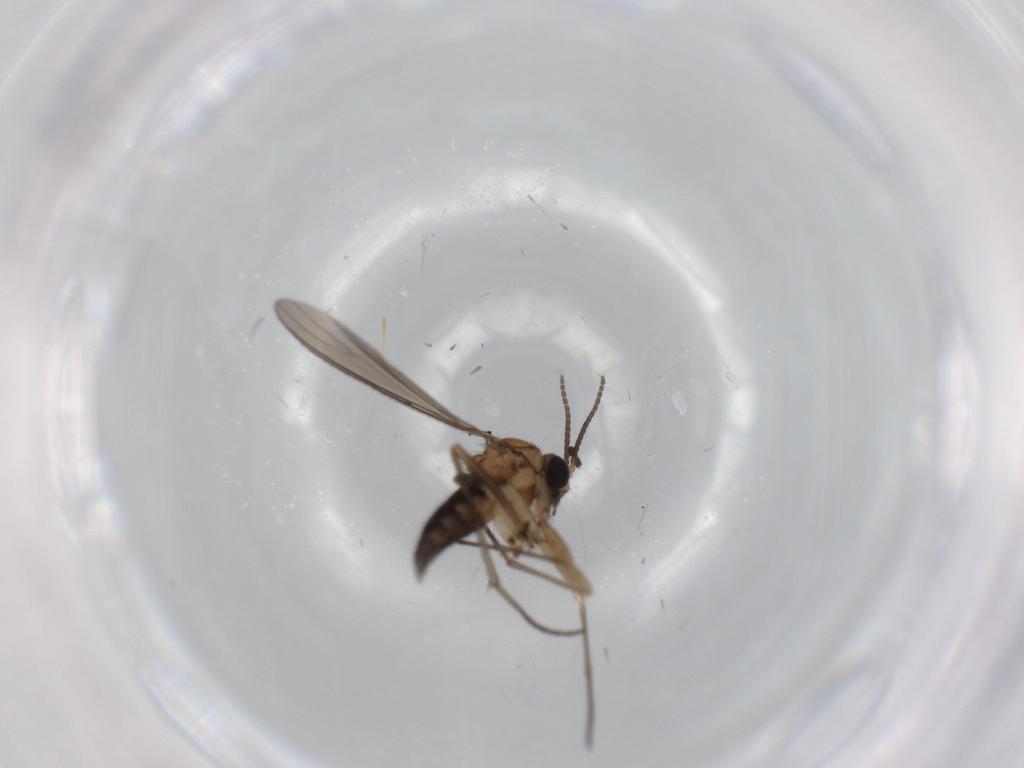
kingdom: Animalia
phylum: Arthropoda
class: Insecta
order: Diptera
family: Sciaridae
